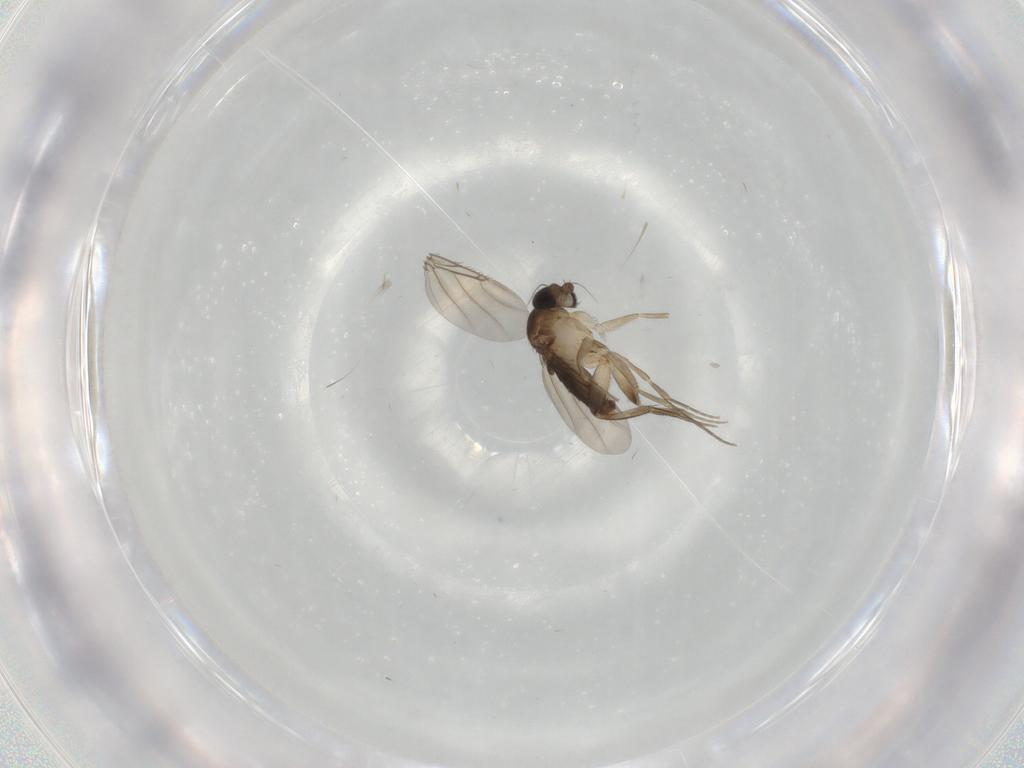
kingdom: Animalia
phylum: Arthropoda
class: Insecta
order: Diptera
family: Phoridae
